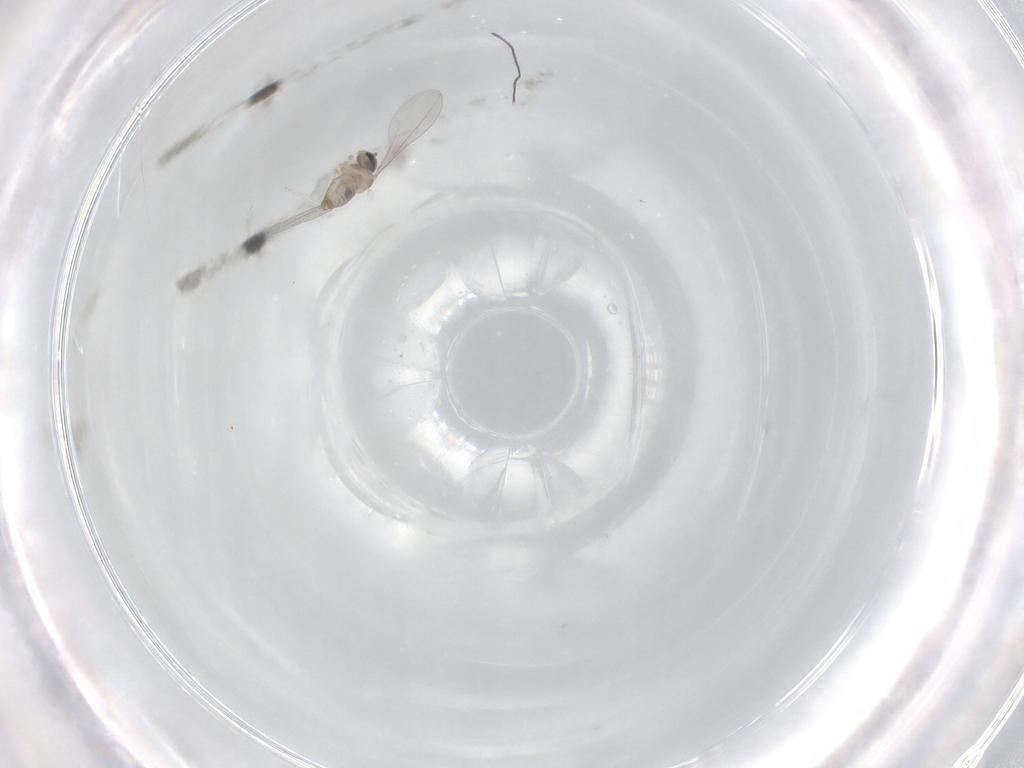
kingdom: Animalia
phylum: Arthropoda
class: Insecta
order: Diptera
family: Cecidomyiidae
